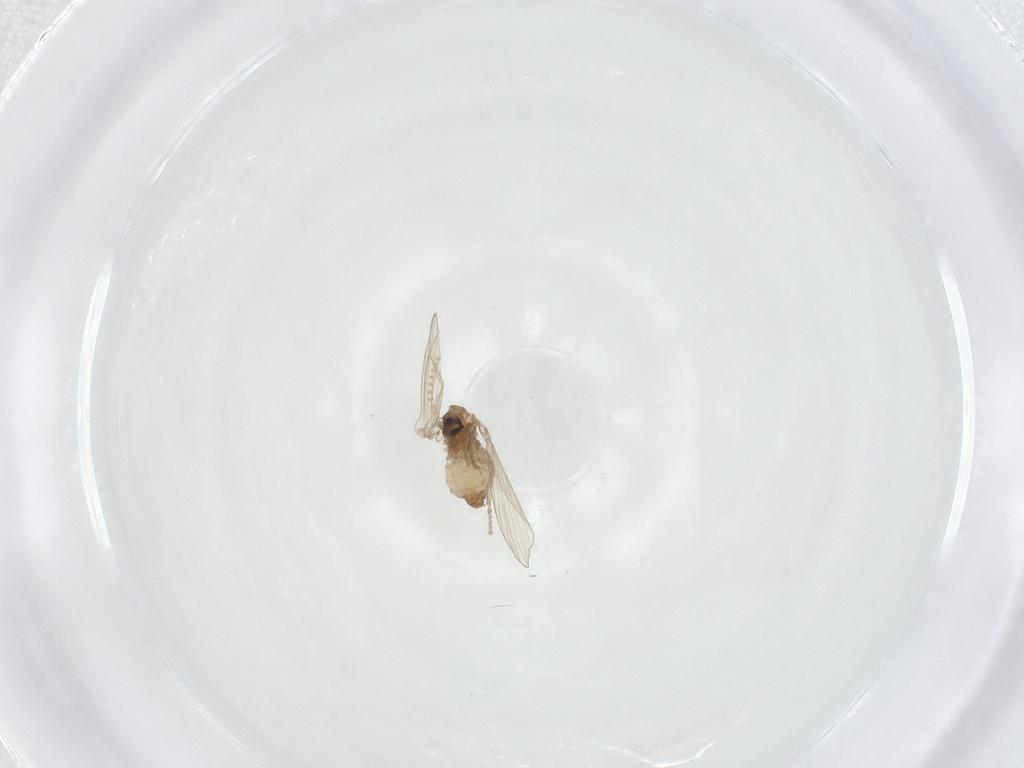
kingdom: Animalia
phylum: Arthropoda
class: Insecta
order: Diptera
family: Psychodidae
